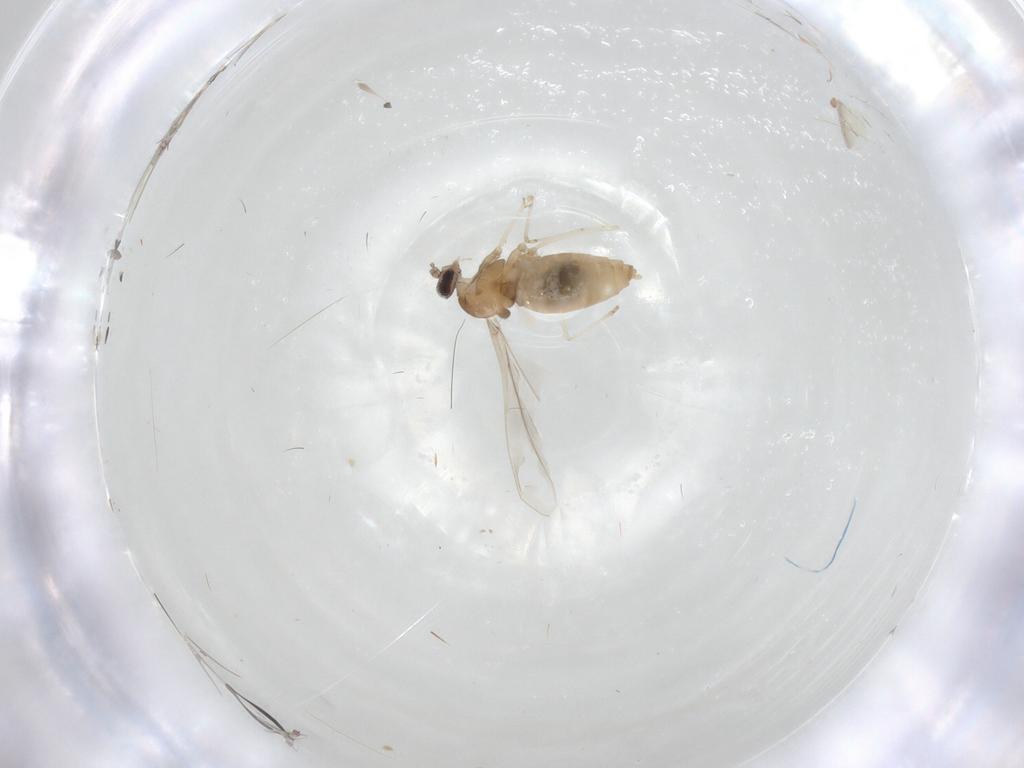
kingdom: Animalia
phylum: Arthropoda
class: Insecta
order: Diptera
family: Cecidomyiidae
